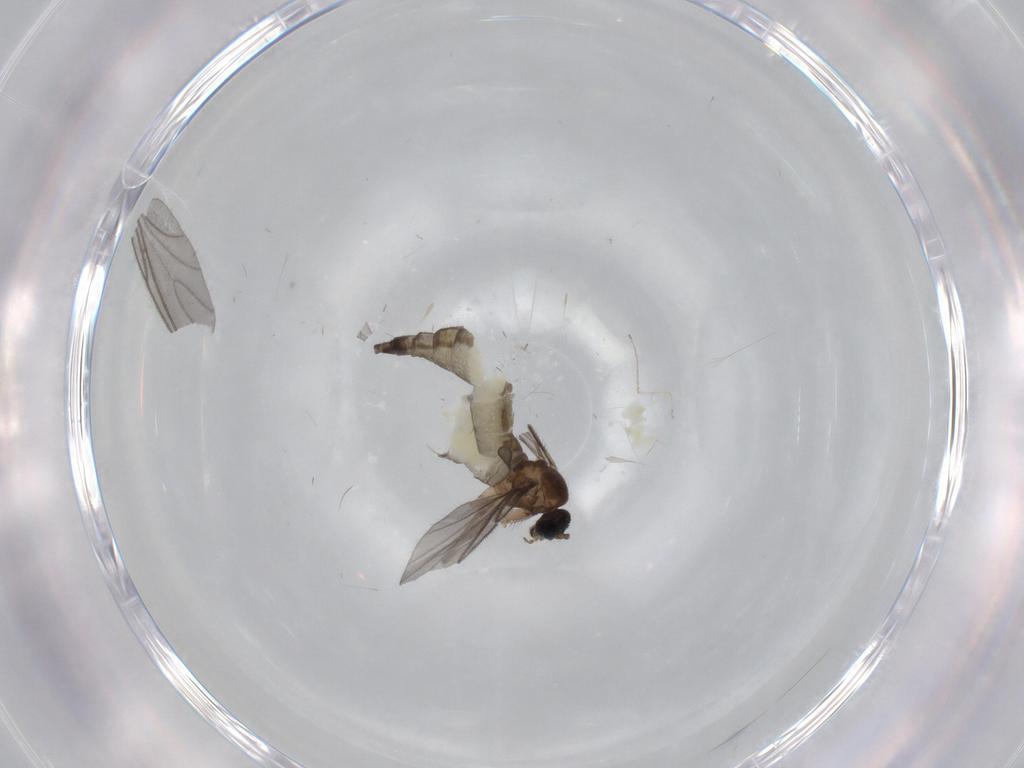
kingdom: Animalia
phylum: Arthropoda
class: Insecta
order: Diptera
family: Sciaridae
